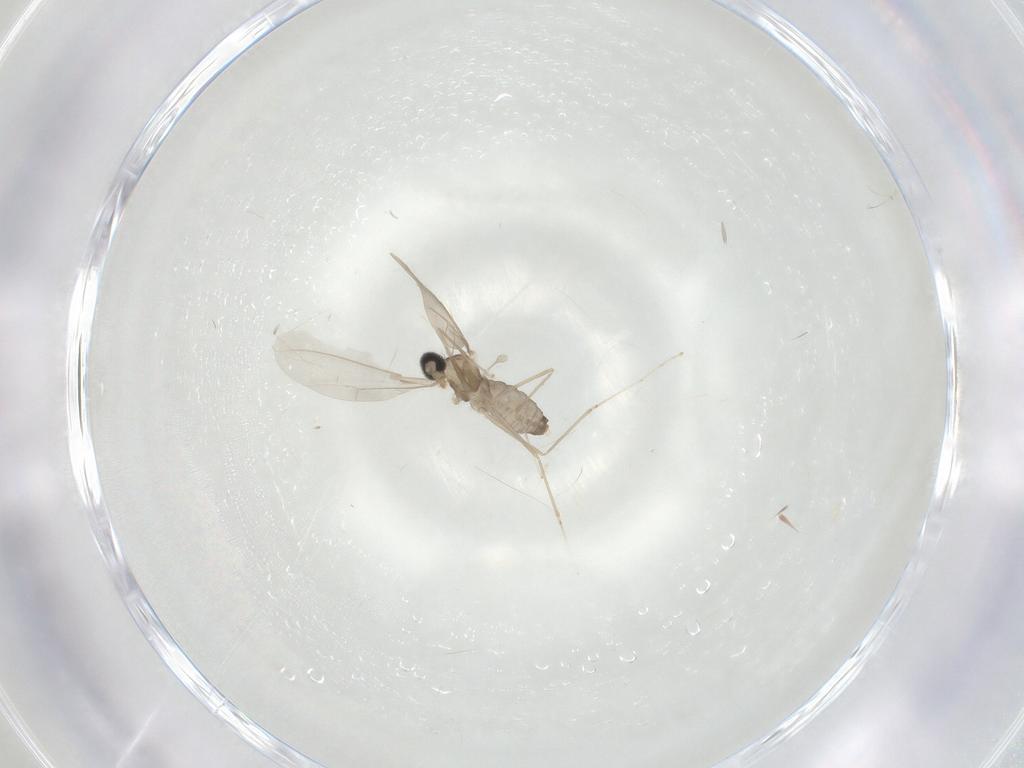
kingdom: Animalia
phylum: Arthropoda
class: Insecta
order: Diptera
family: Cecidomyiidae
